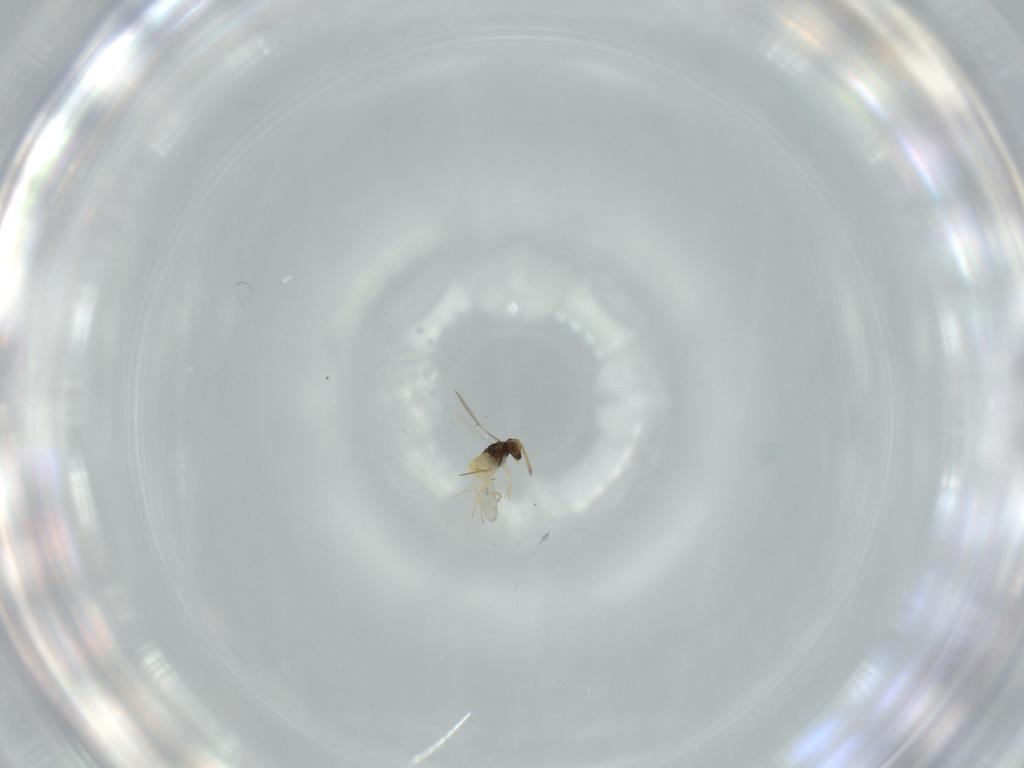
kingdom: Animalia
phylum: Arthropoda
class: Insecta
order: Hymenoptera
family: Aphelinidae
